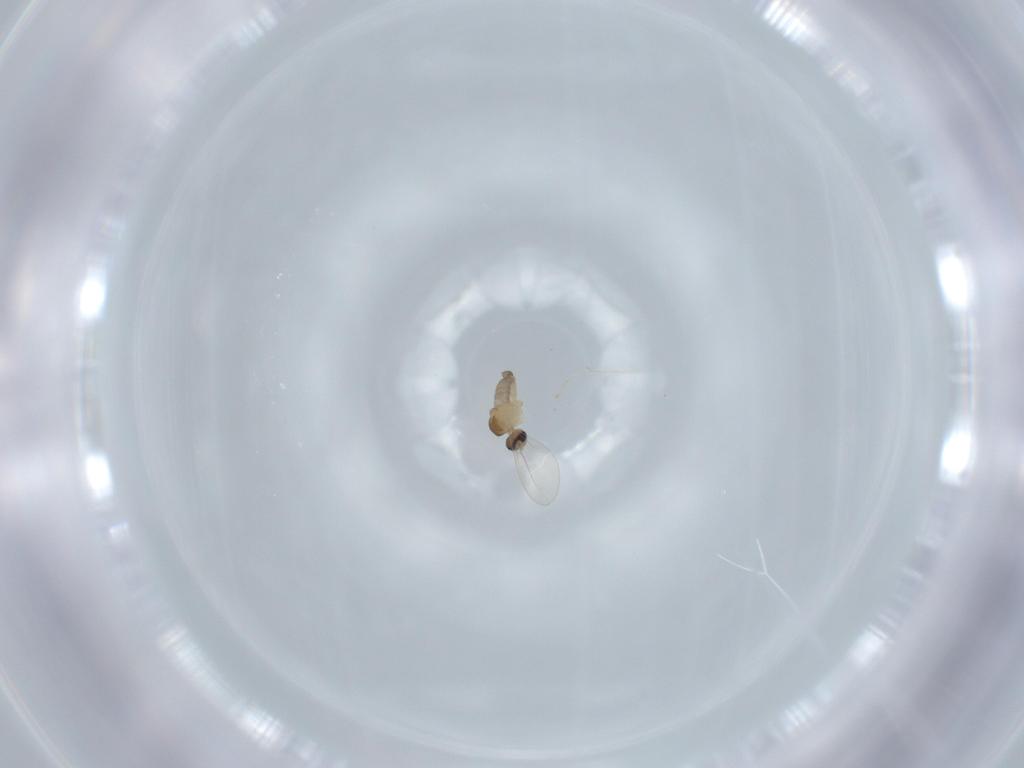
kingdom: Animalia
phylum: Arthropoda
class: Insecta
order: Diptera
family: Cecidomyiidae
